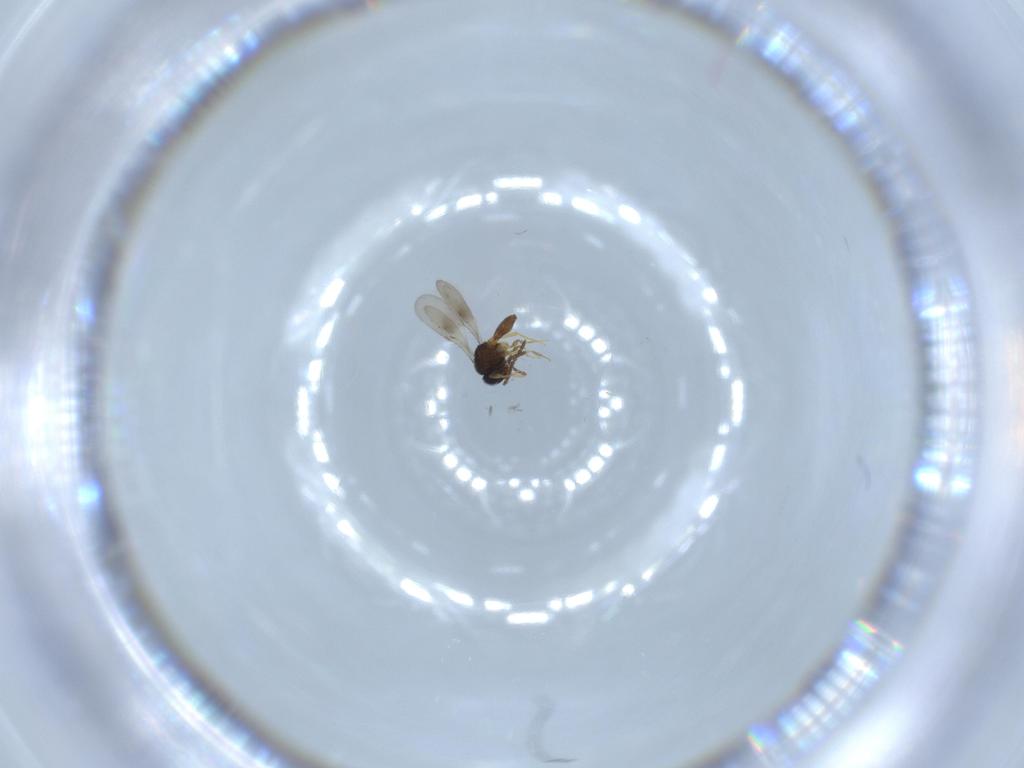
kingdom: Animalia
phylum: Arthropoda
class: Insecta
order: Hymenoptera
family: Scelionidae
